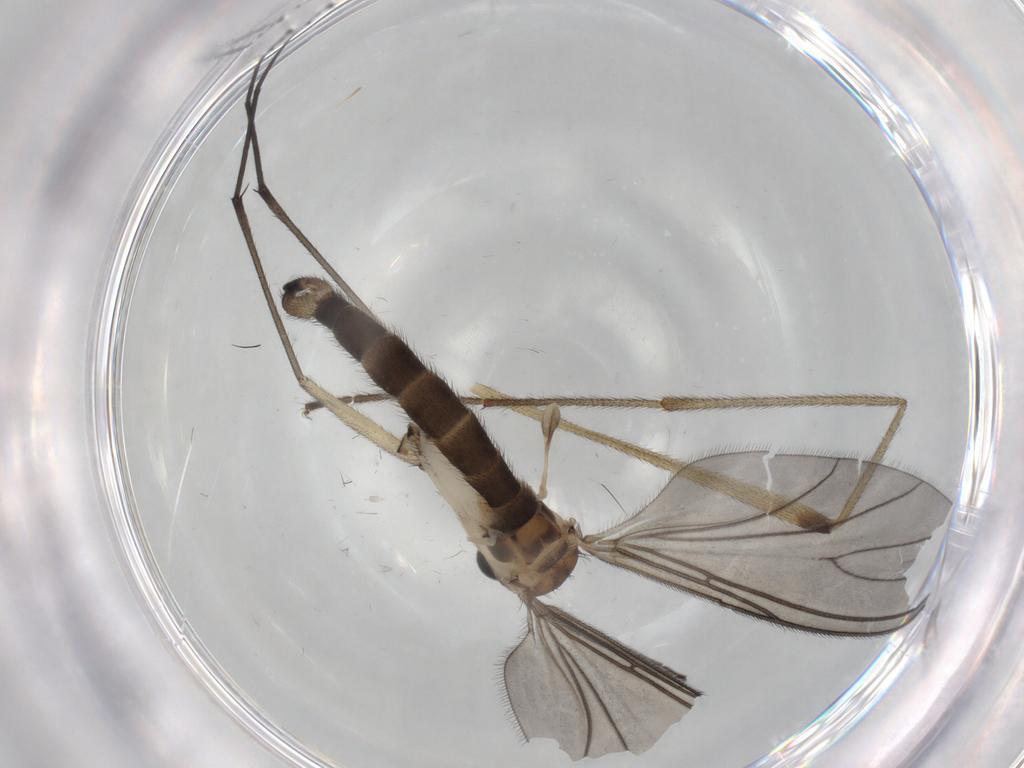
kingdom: Animalia
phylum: Arthropoda
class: Insecta
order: Diptera
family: Sciaridae
